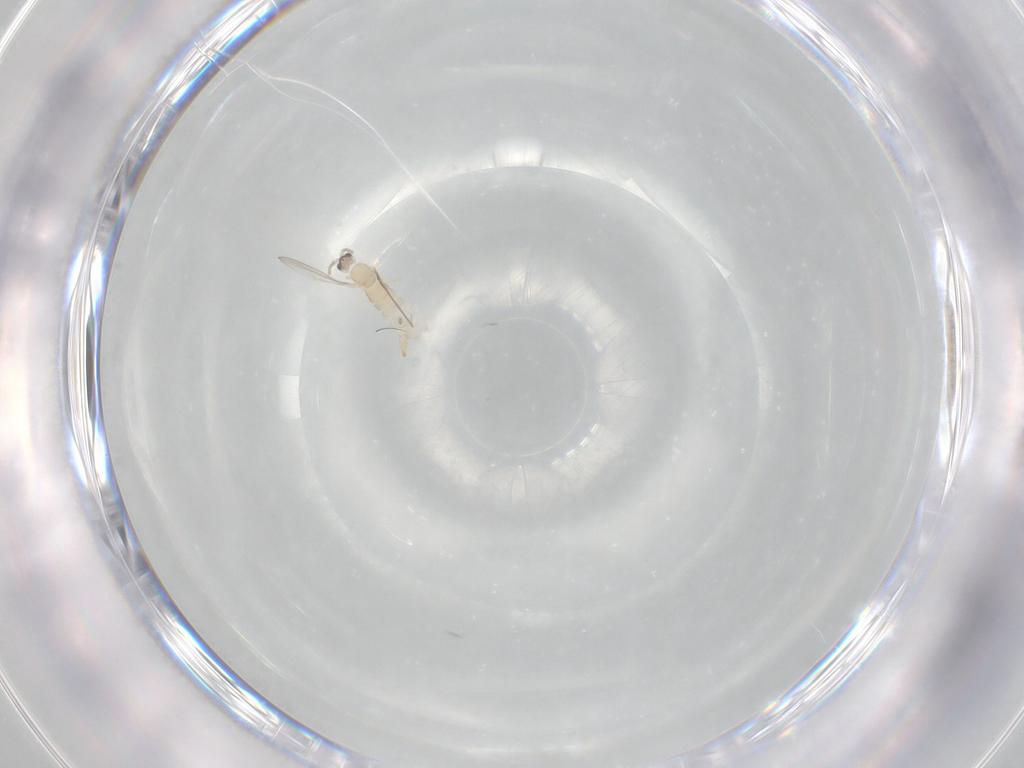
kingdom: Animalia
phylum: Arthropoda
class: Insecta
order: Diptera
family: Cecidomyiidae
